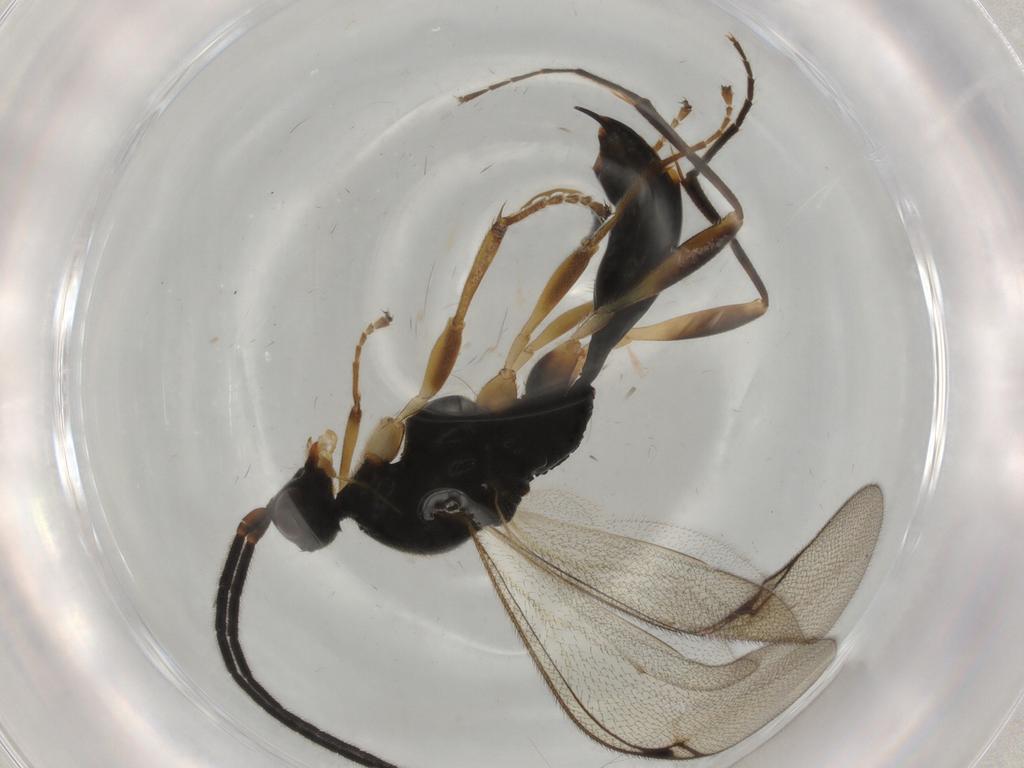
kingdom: Animalia
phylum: Arthropoda
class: Insecta
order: Hymenoptera
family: Proctotrupidae
